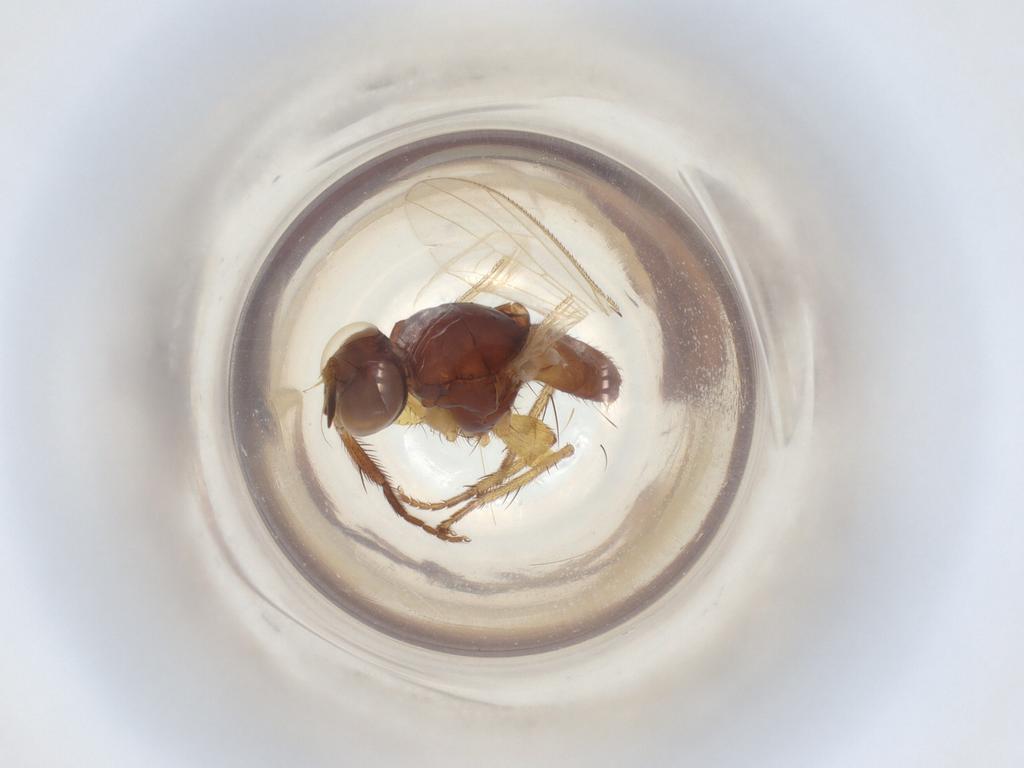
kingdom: Animalia
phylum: Arthropoda
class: Insecta
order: Diptera
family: Muscidae
